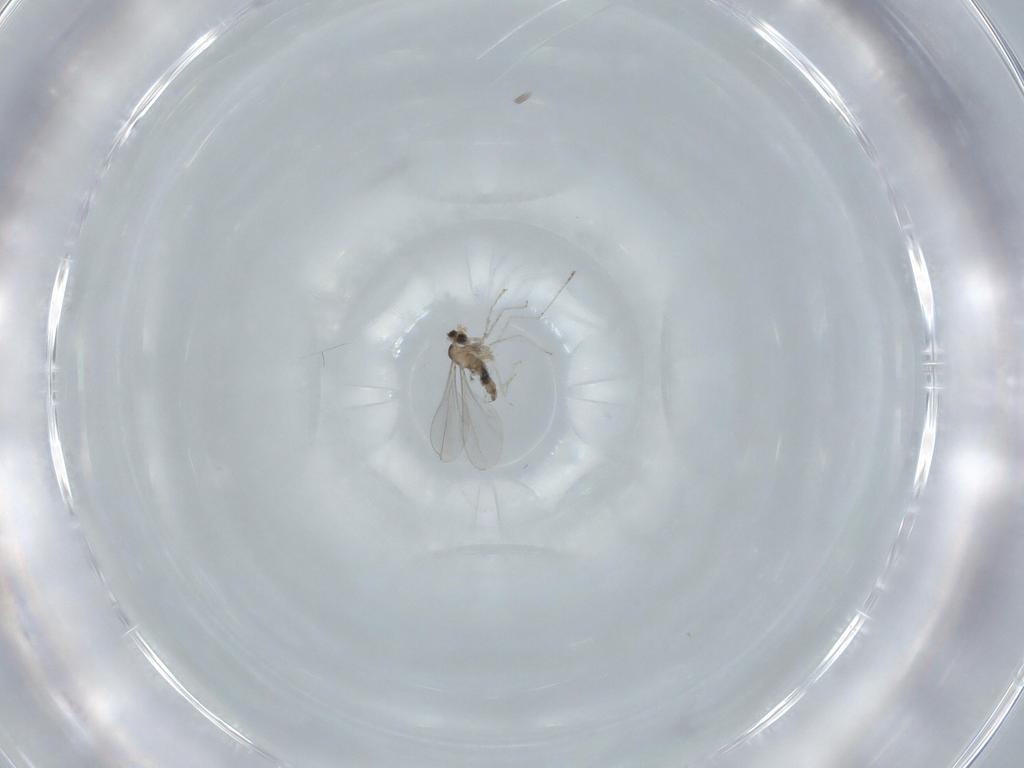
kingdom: Animalia
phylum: Arthropoda
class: Insecta
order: Diptera
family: Cecidomyiidae
